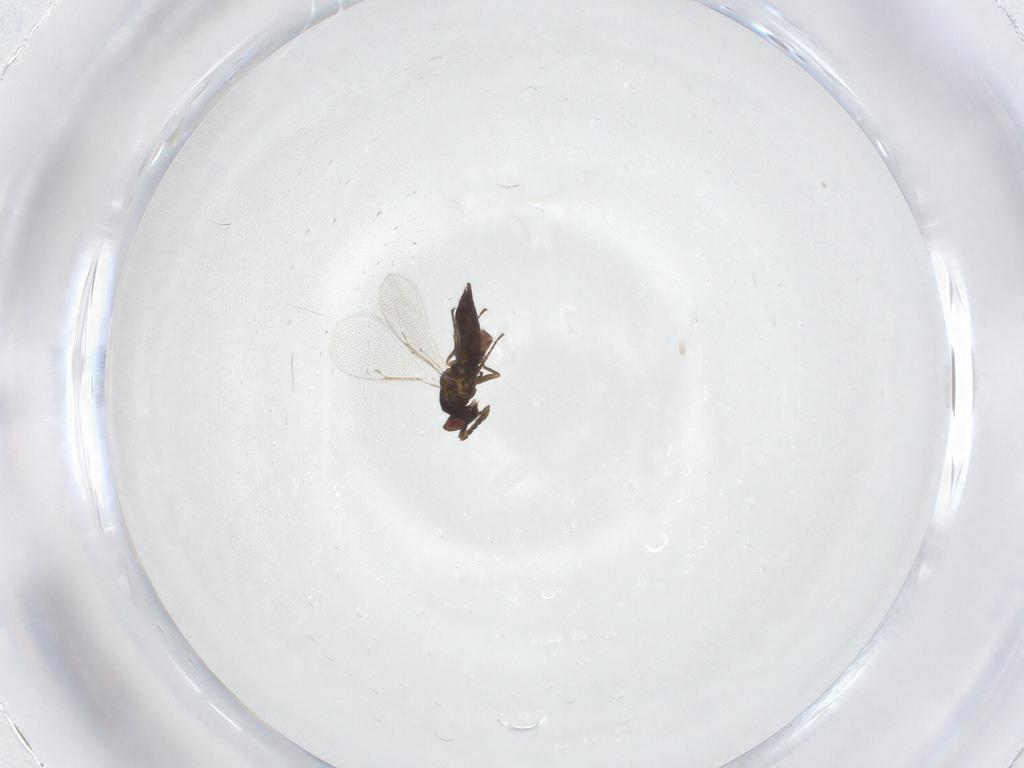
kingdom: Animalia
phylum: Arthropoda
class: Insecta
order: Hymenoptera
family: Eulophidae
